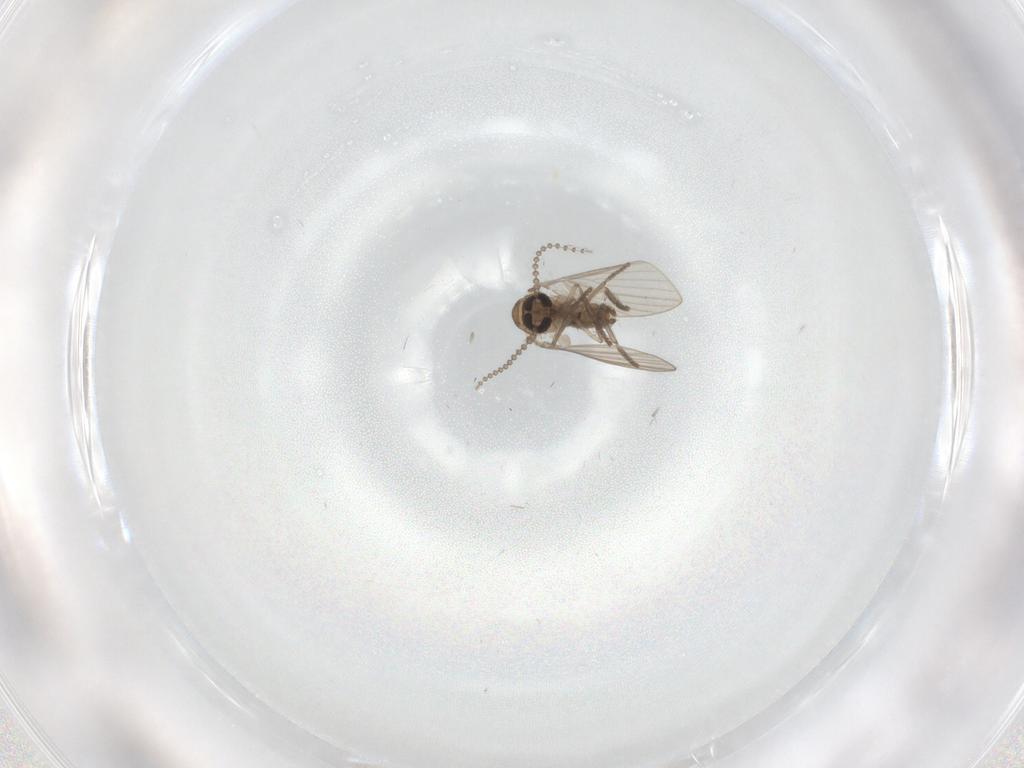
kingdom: Animalia
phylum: Arthropoda
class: Insecta
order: Diptera
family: Psychodidae
